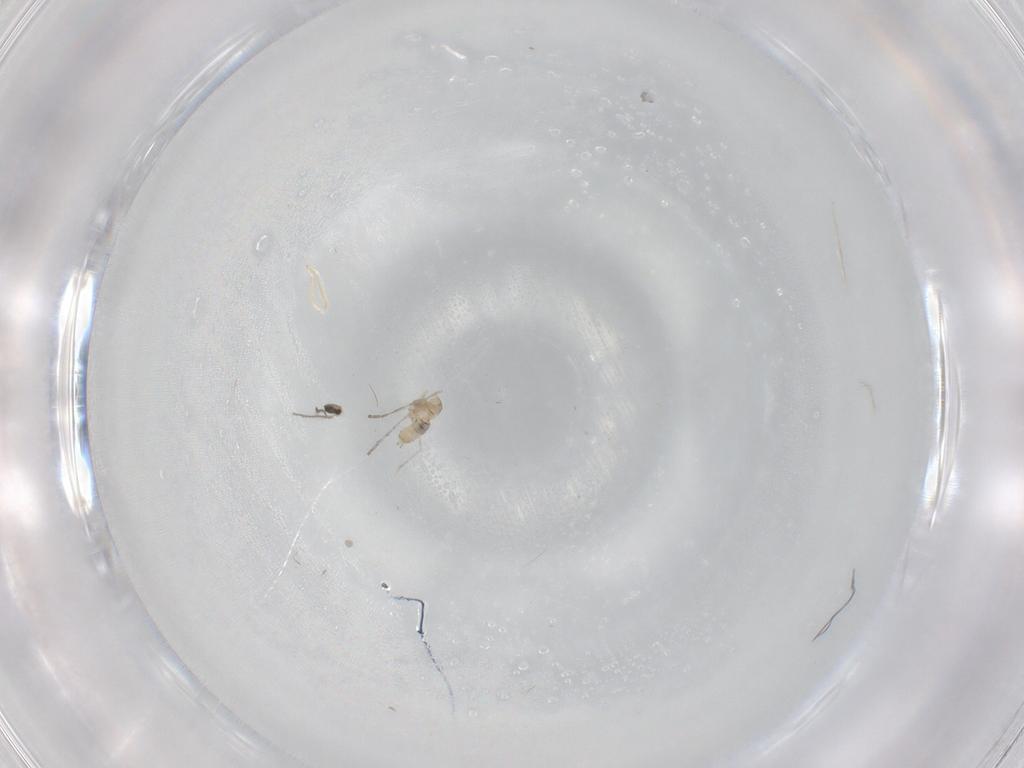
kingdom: Animalia
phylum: Arthropoda
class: Insecta
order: Diptera
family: Cecidomyiidae
